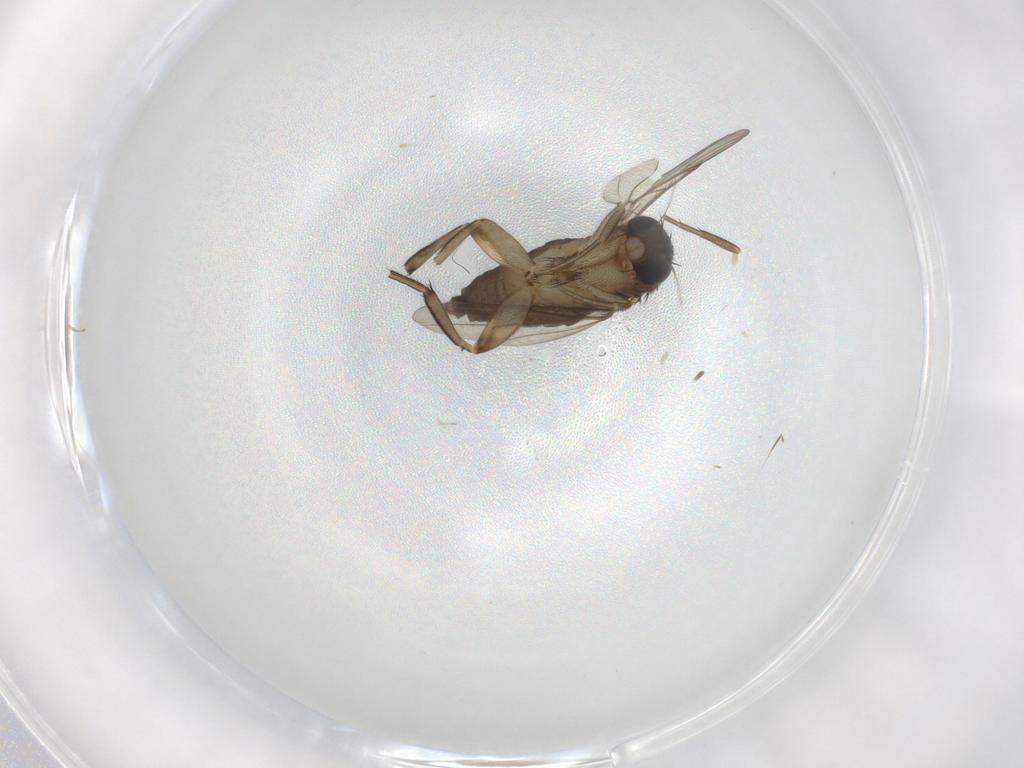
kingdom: Animalia
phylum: Arthropoda
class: Insecta
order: Diptera
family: Phoridae
